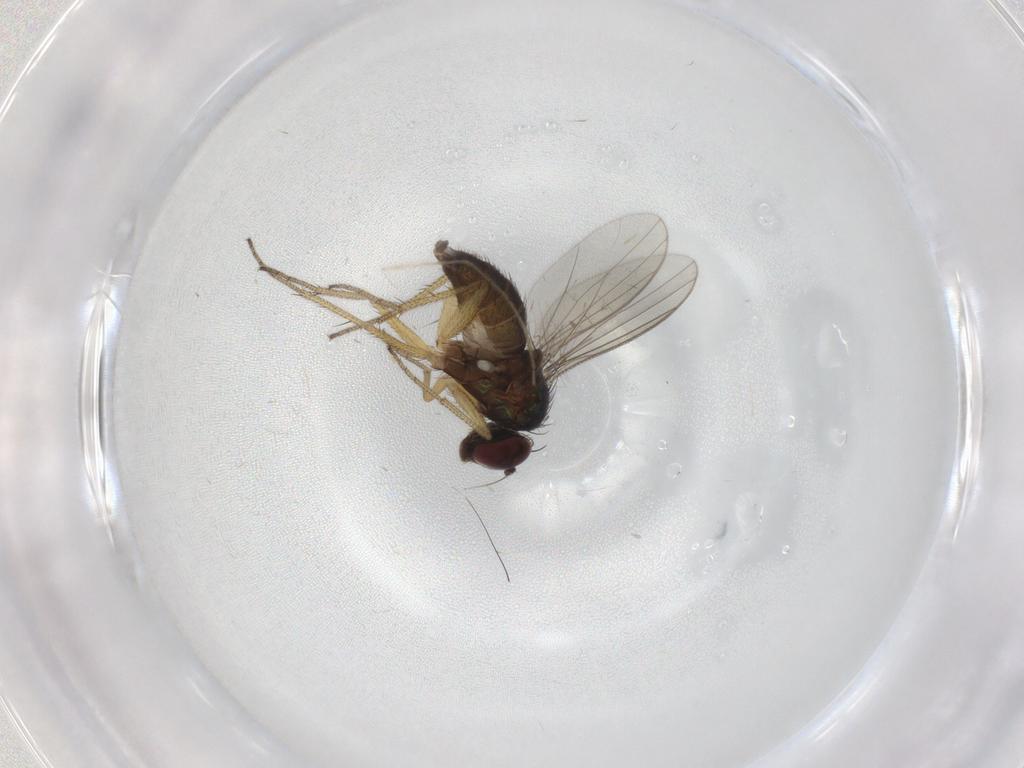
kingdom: Animalia
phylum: Arthropoda
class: Insecta
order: Diptera
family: Dolichopodidae
